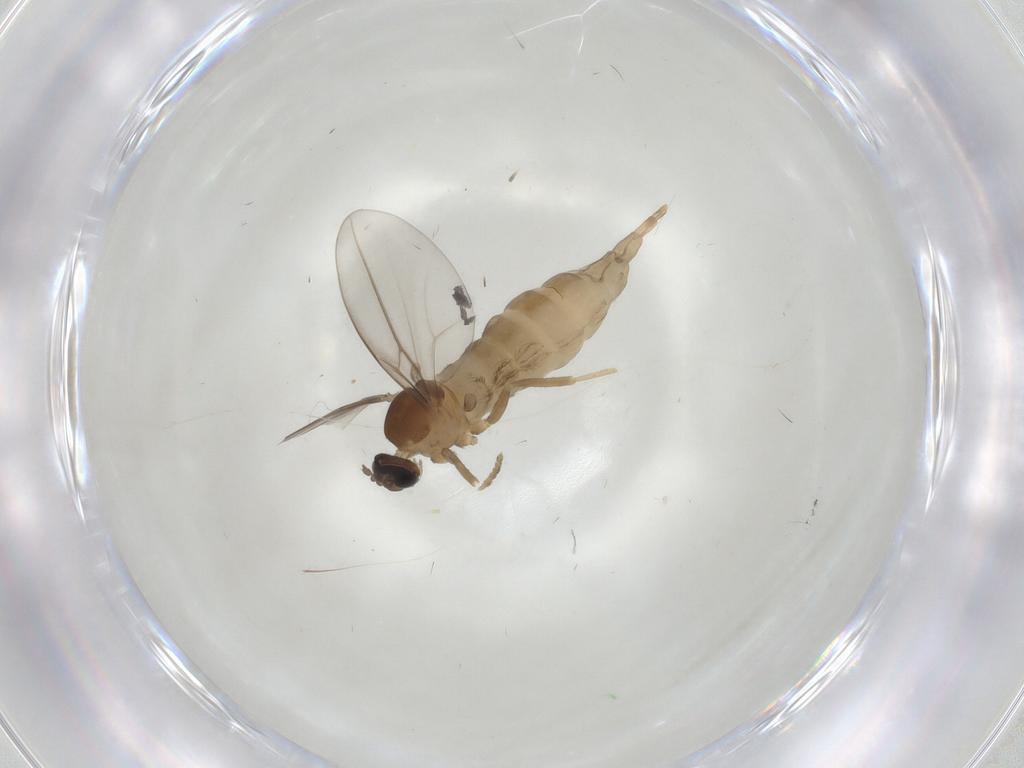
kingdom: Animalia
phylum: Arthropoda
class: Insecta
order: Diptera
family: Cecidomyiidae
